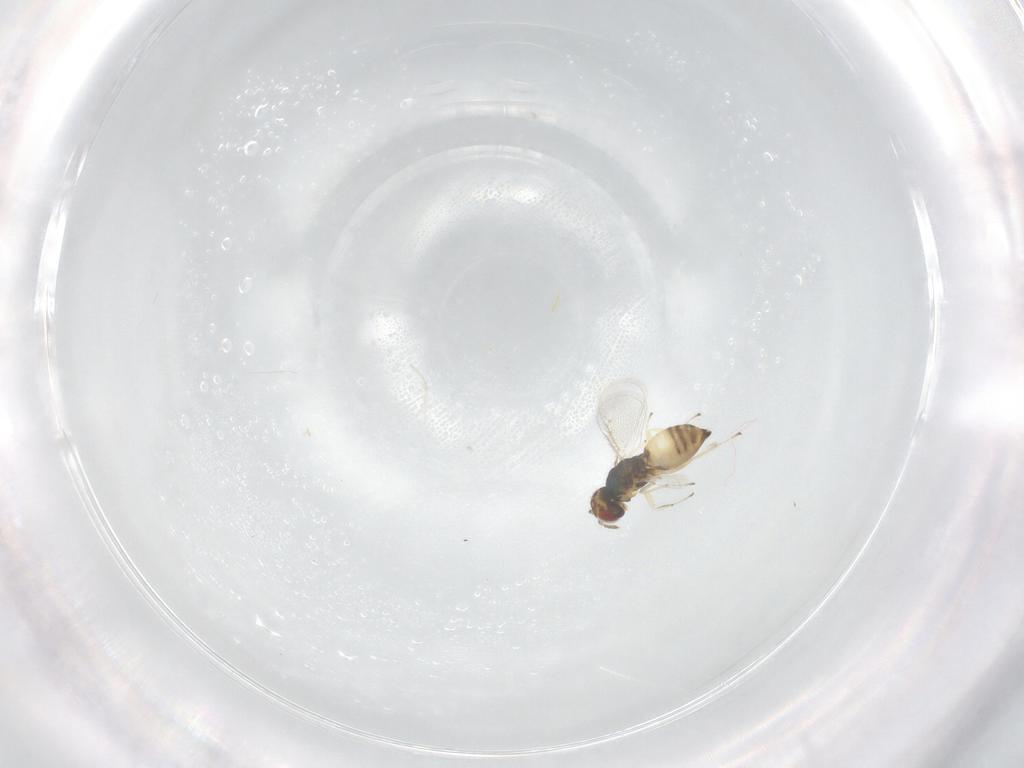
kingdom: Animalia
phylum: Arthropoda
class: Insecta
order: Hymenoptera
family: Eulophidae
